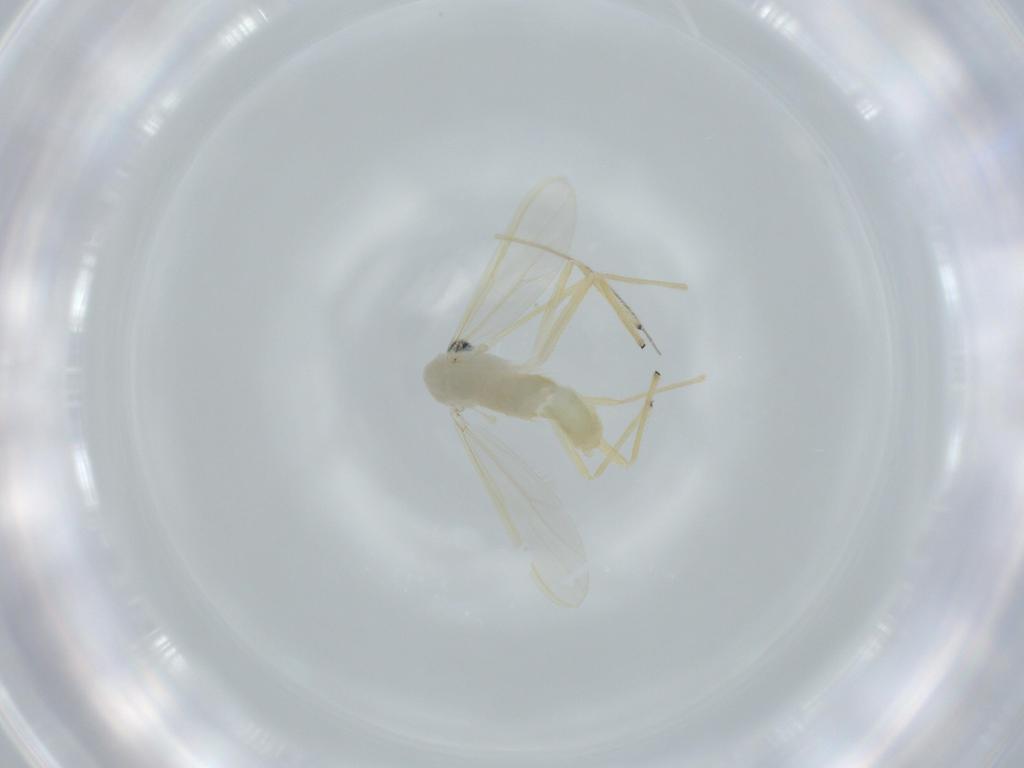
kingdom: Animalia
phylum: Arthropoda
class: Insecta
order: Diptera
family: Chironomidae
